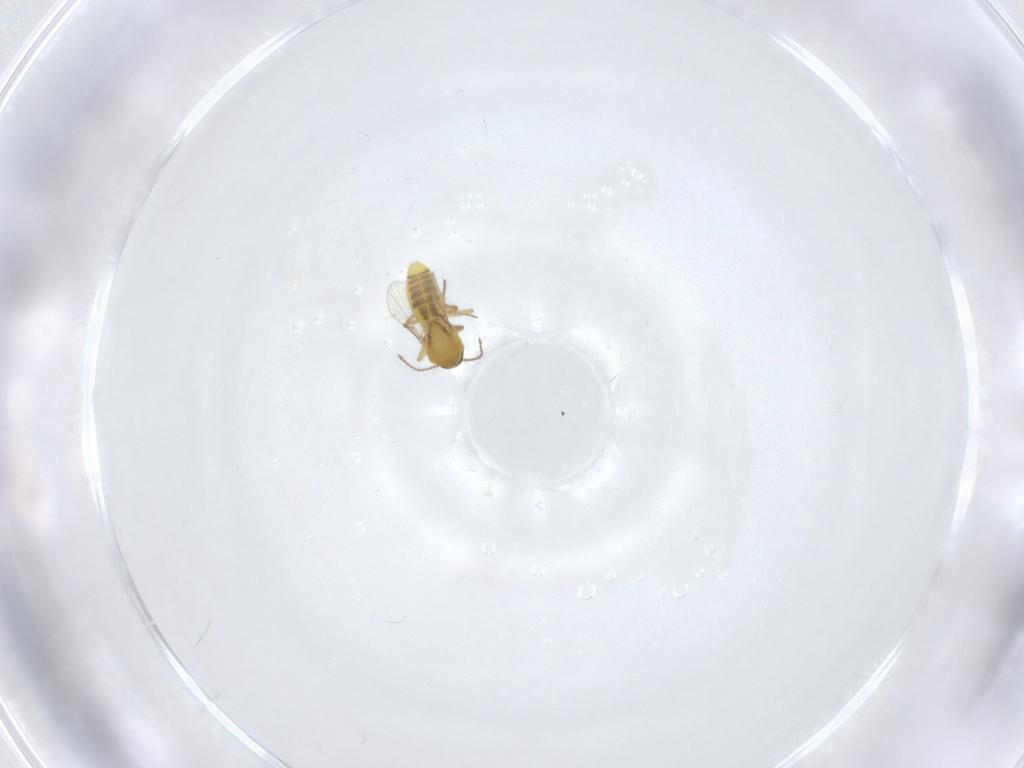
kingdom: Animalia
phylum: Arthropoda
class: Insecta
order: Diptera
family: Ceratopogonidae
